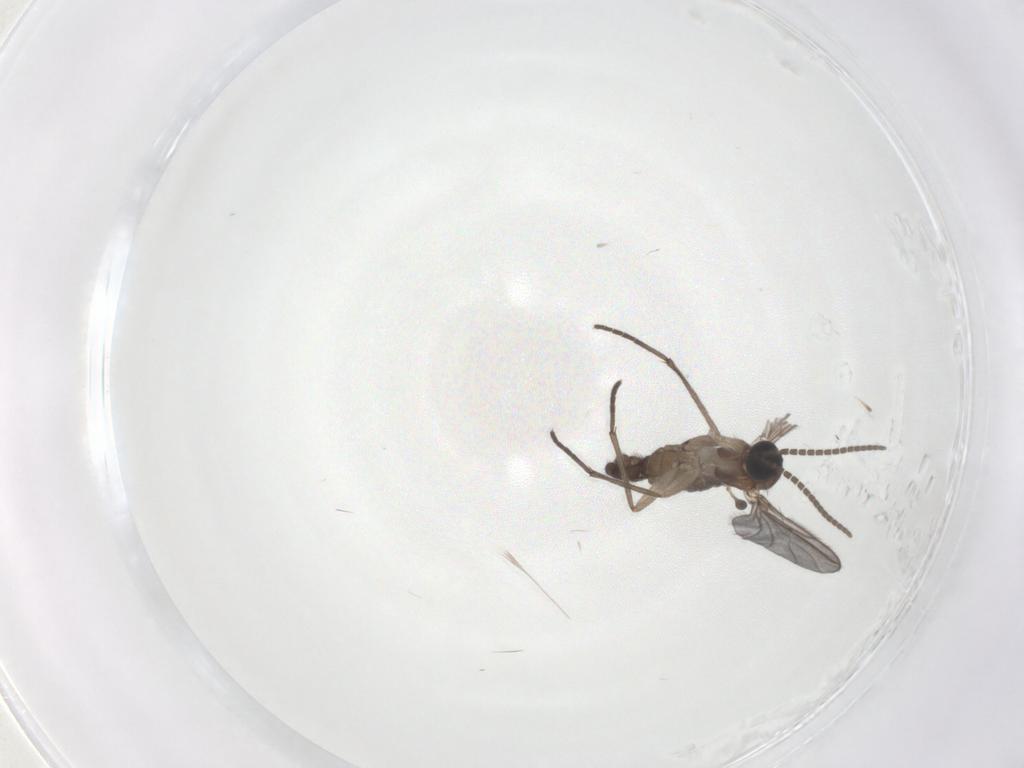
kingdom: Animalia
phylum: Arthropoda
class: Insecta
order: Diptera
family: Sciaridae
